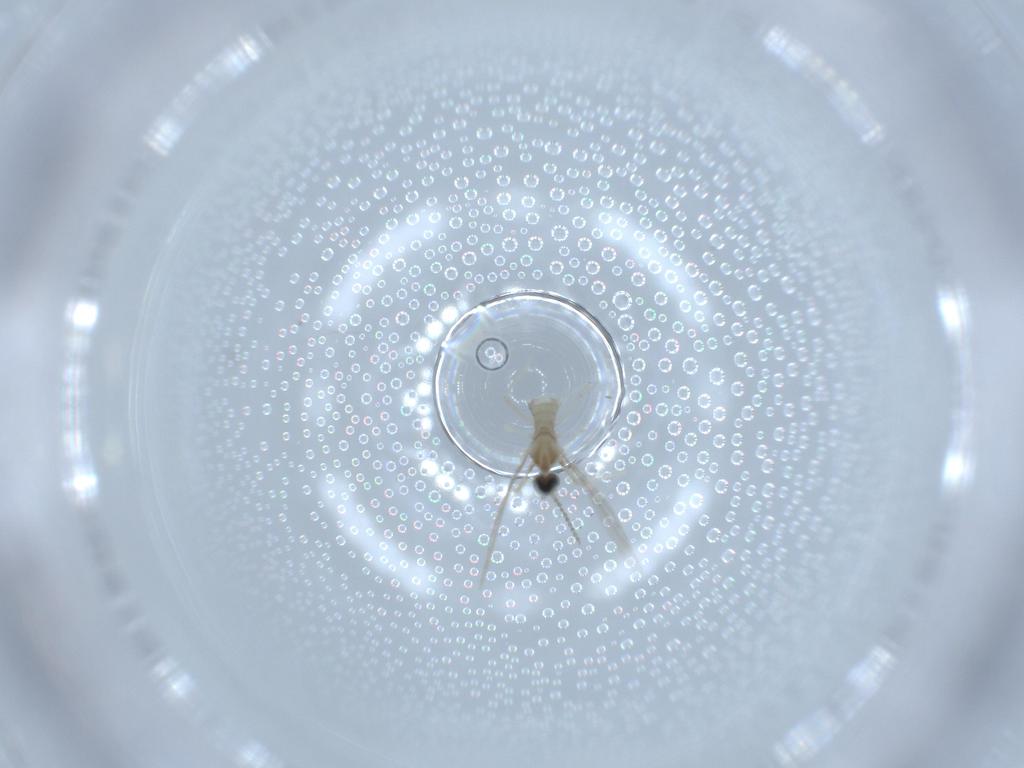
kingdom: Animalia
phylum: Arthropoda
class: Insecta
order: Diptera
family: Cecidomyiidae
